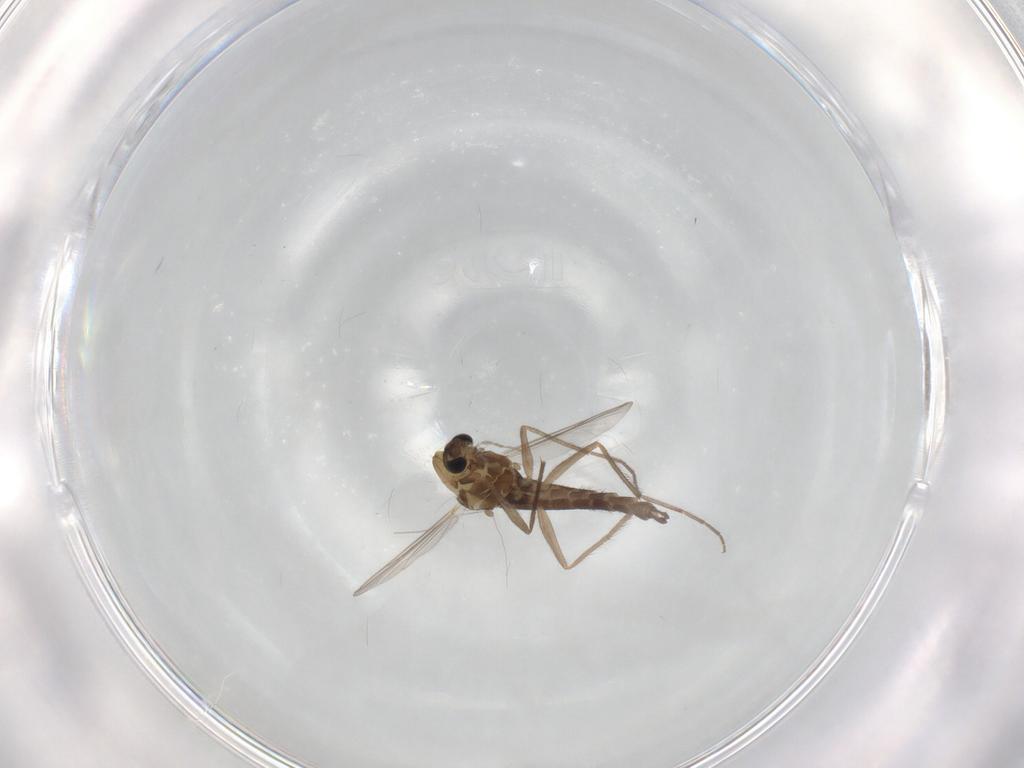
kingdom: Animalia
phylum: Arthropoda
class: Insecta
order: Diptera
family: Chironomidae
